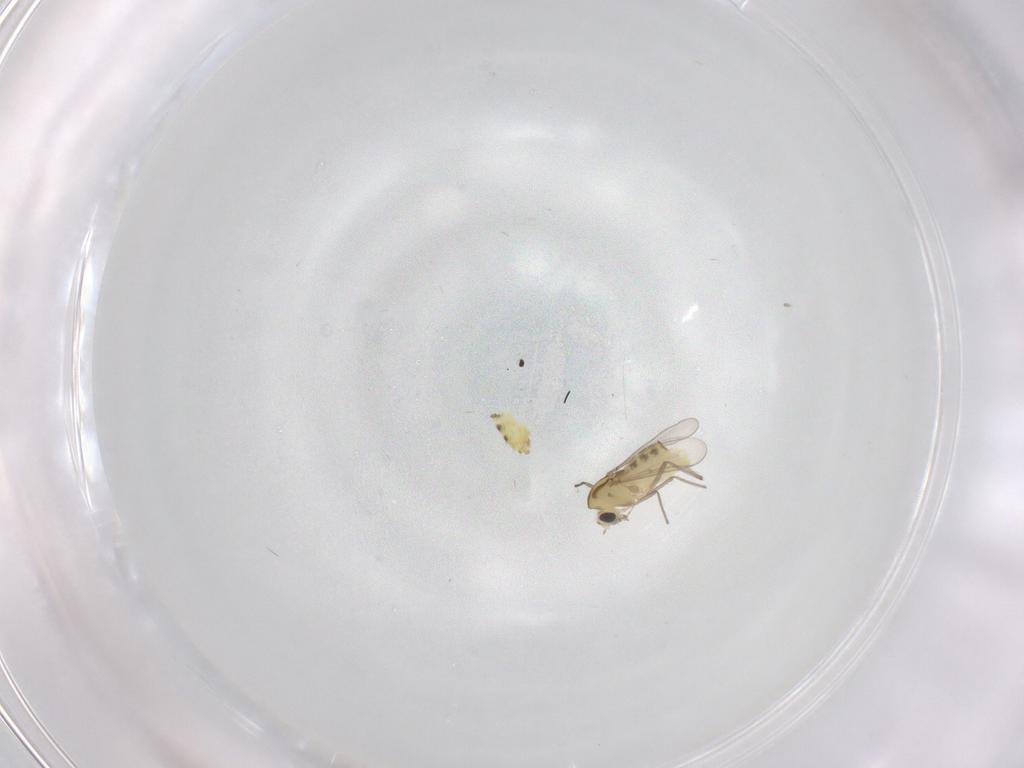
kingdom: Animalia
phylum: Arthropoda
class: Insecta
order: Diptera
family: Chironomidae
